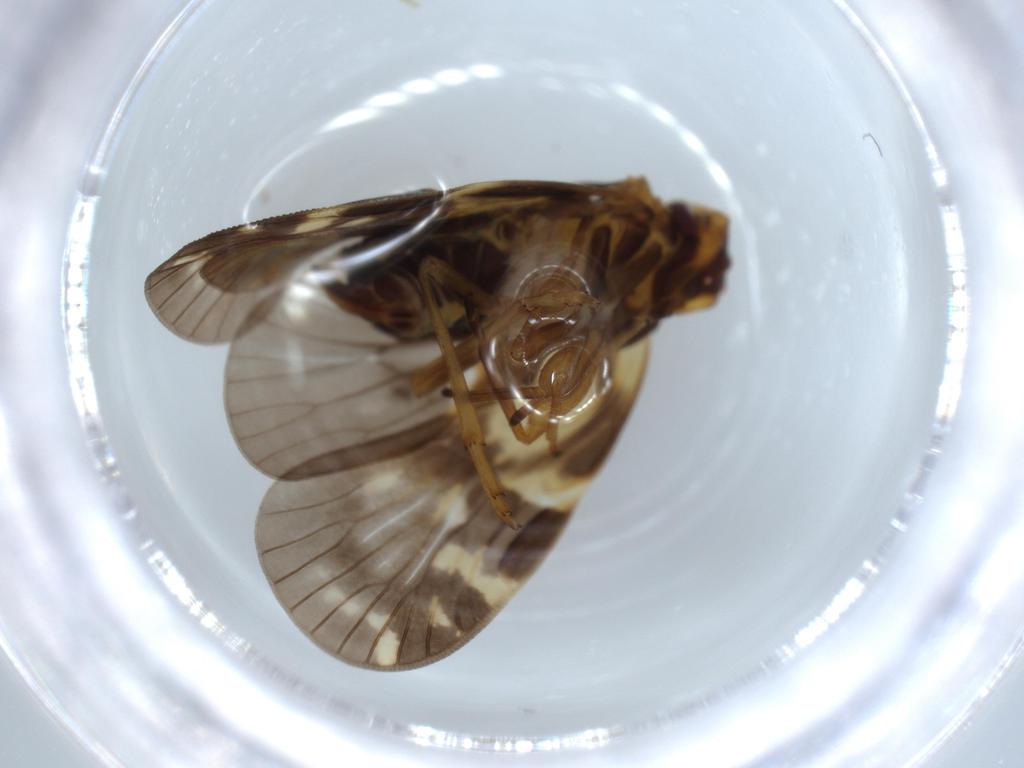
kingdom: Animalia
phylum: Arthropoda
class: Insecta
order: Hemiptera
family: Cixiidae
